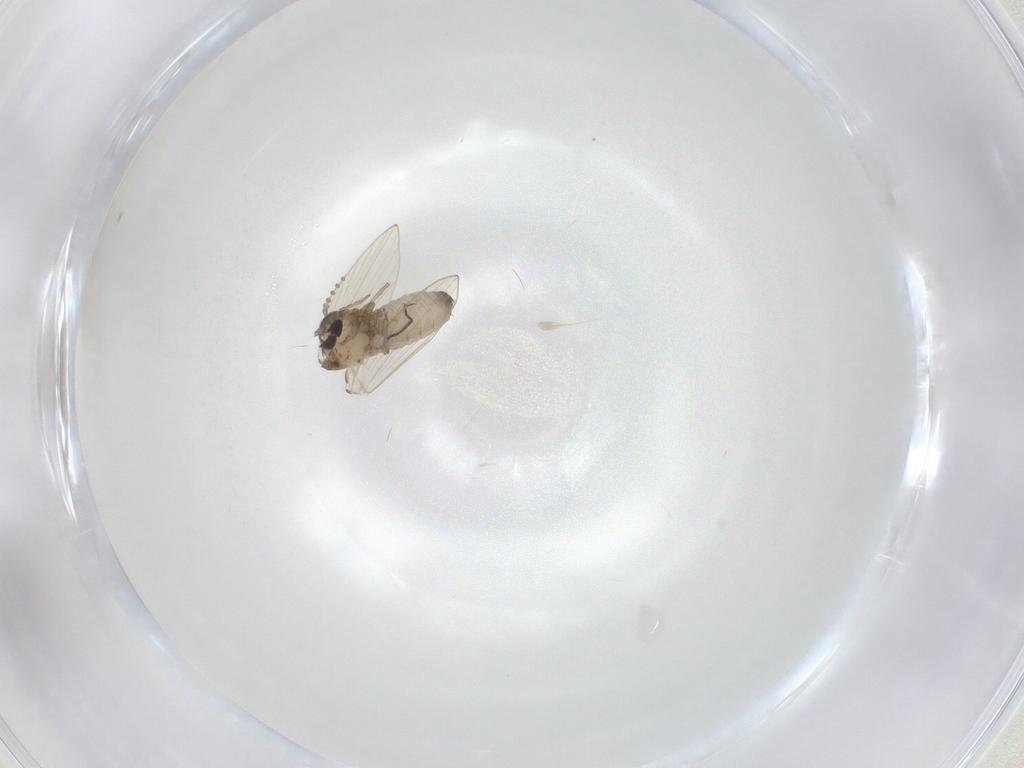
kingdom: Animalia
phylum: Arthropoda
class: Insecta
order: Diptera
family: Psychodidae
